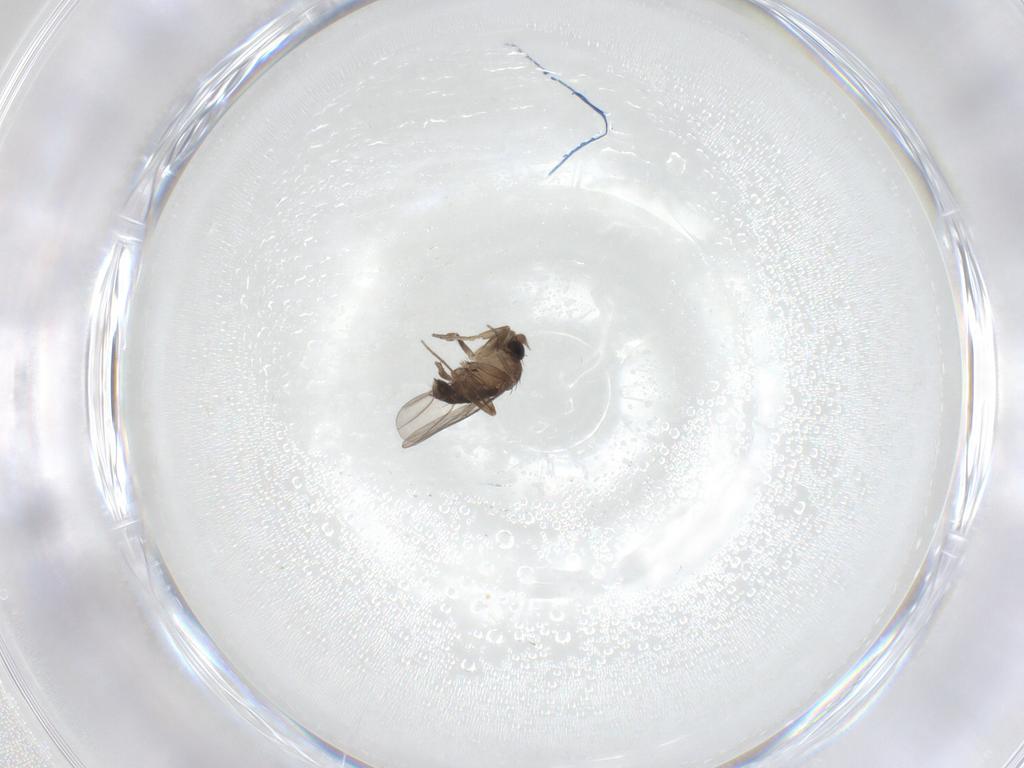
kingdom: Animalia
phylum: Arthropoda
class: Insecta
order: Diptera
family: Phoridae
